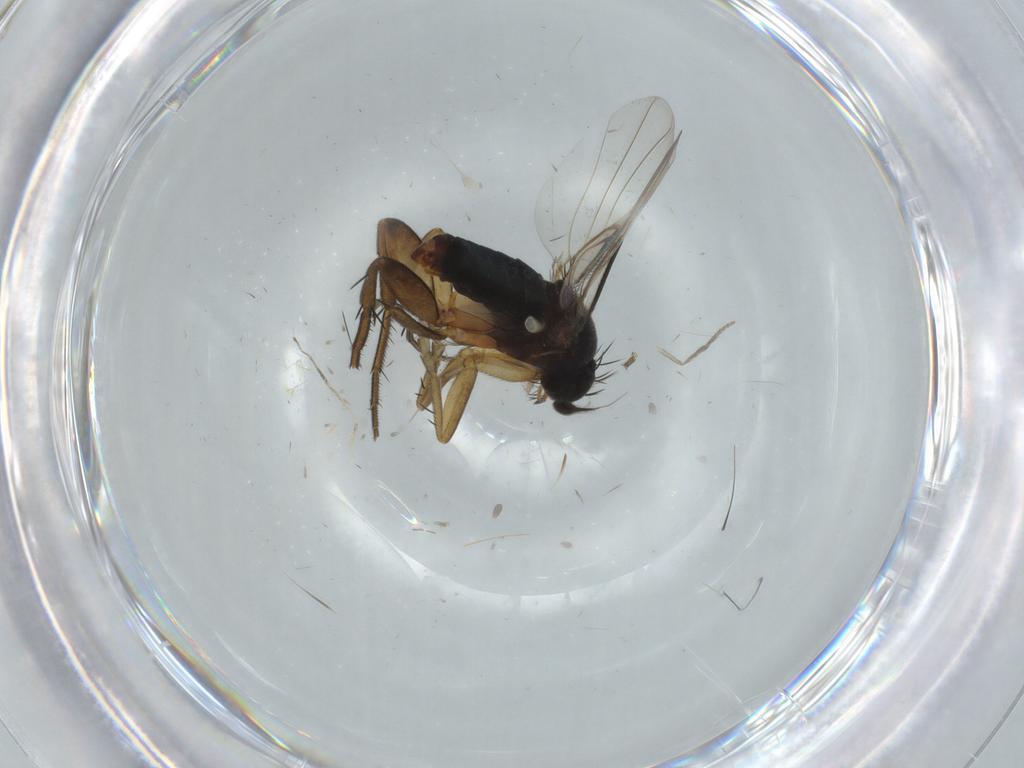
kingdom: Animalia
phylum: Arthropoda
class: Insecta
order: Diptera
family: Phoridae
